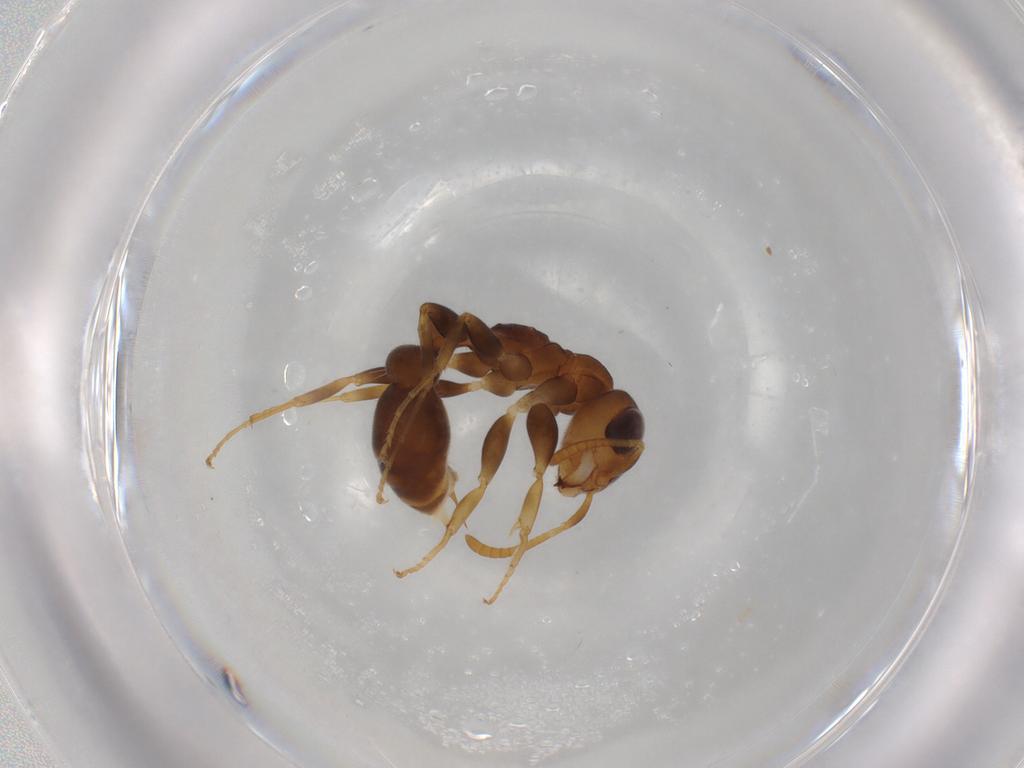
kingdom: Animalia
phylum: Arthropoda
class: Insecta
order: Hymenoptera
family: Formicidae
